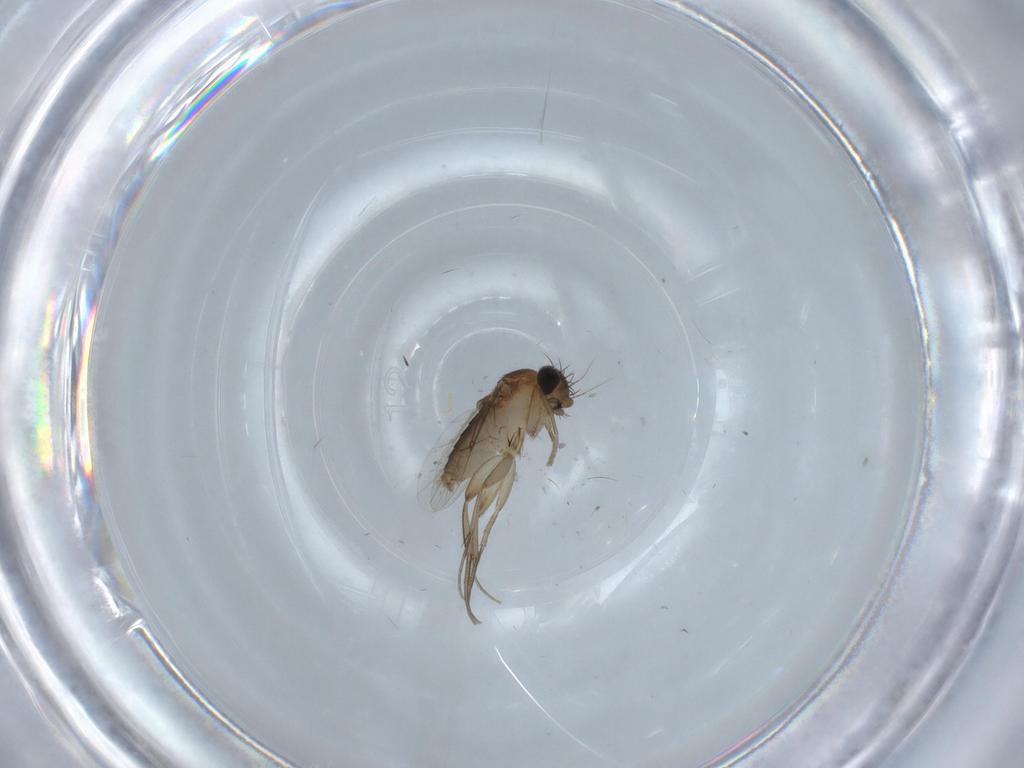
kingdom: Animalia
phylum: Arthropoda
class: Insecta
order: Diptera
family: Phoridae
